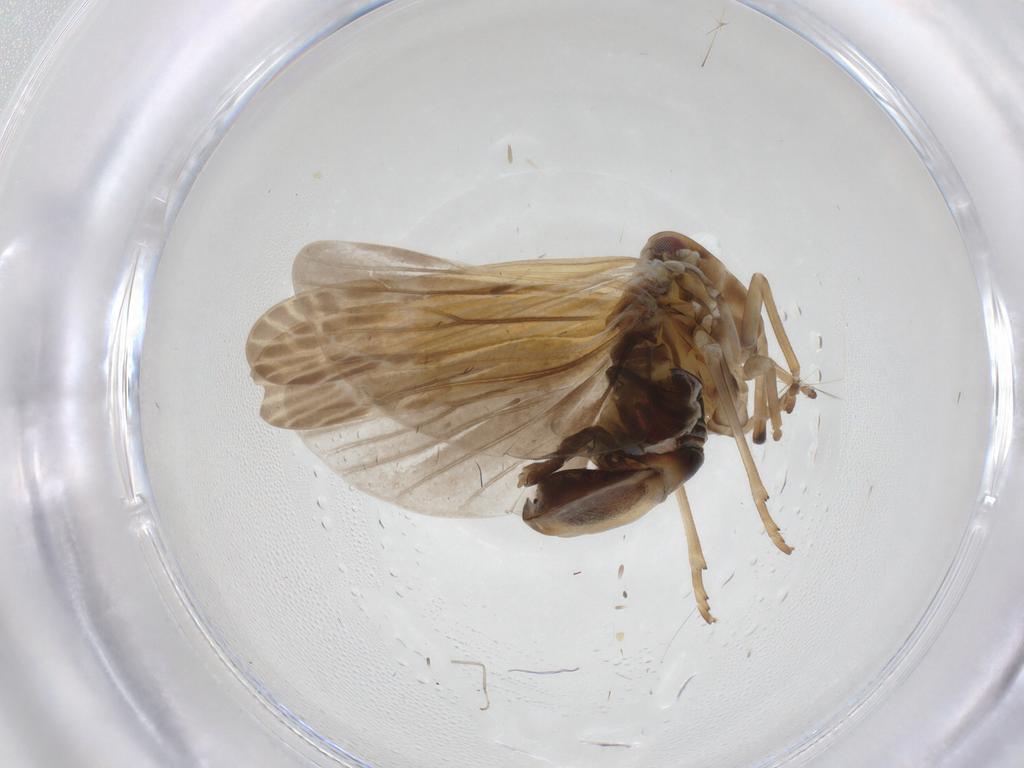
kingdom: Animalia
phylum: Arthropoda
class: Insecta
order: Hemiptera
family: Derbidae
